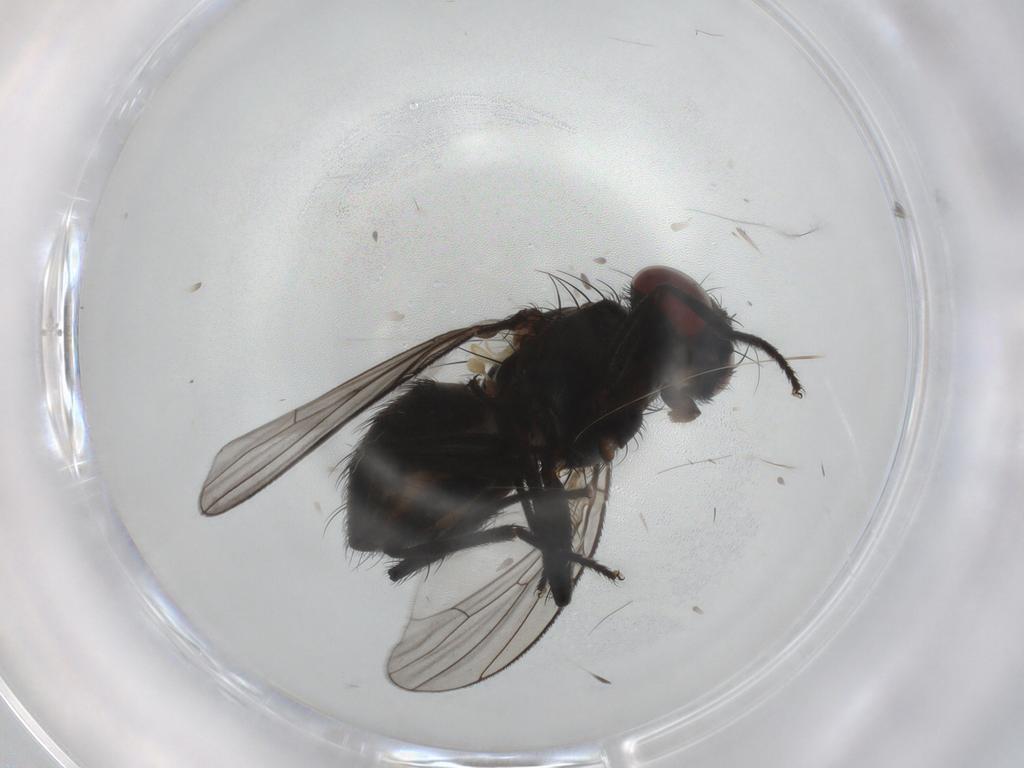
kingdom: Animalia
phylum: Arthropoda
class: Insecta
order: Diptera
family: Muscidae
